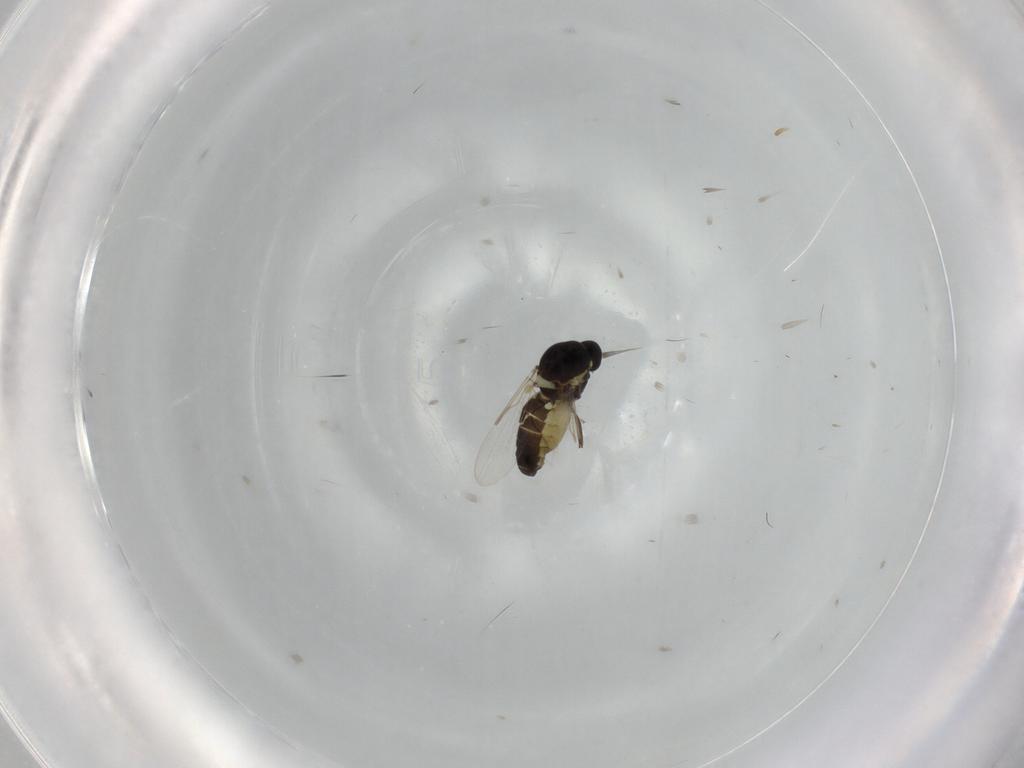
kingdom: Animalia
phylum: Arthropoda
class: Insecta
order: Diptera
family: Ceratopogonidae
